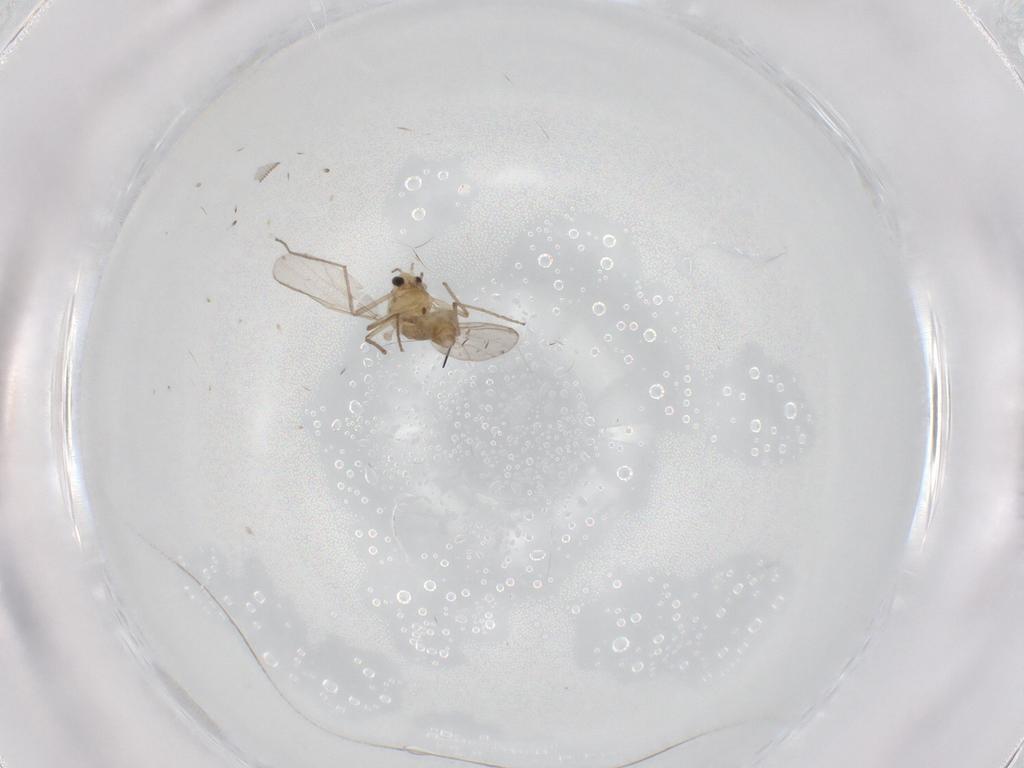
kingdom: Animalia
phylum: Arthropoda
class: Insecta
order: Diptera
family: Chironomidae
